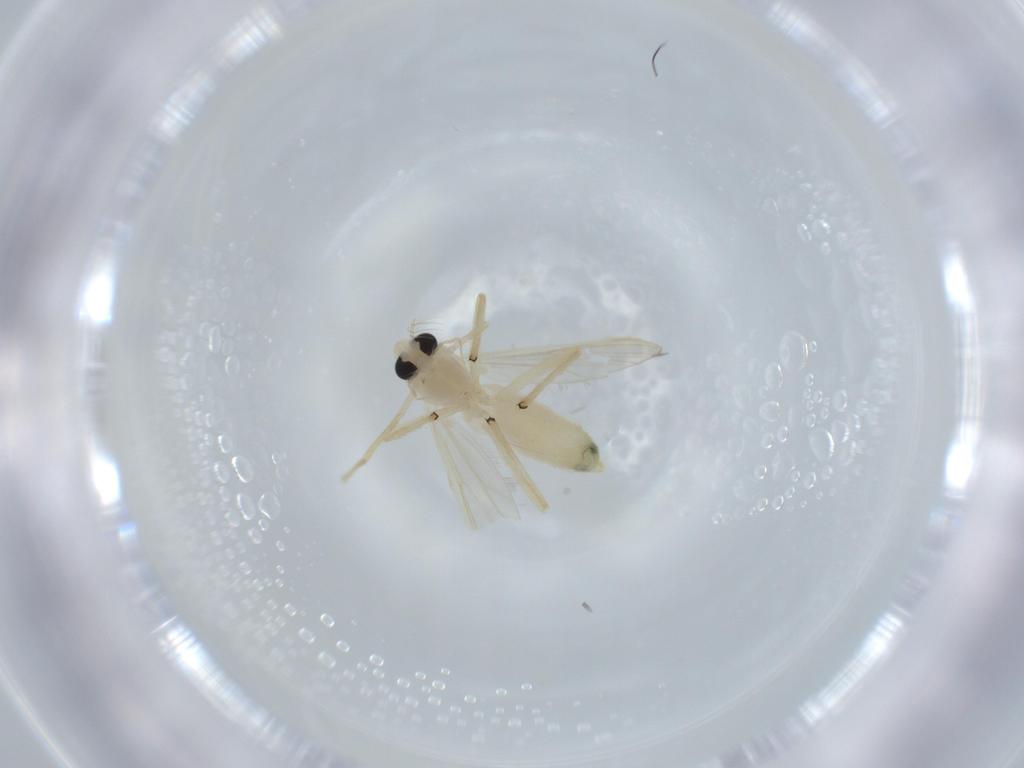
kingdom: Animalia
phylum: Arthropoda
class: Insecta
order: Diptera
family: Chironomidae
